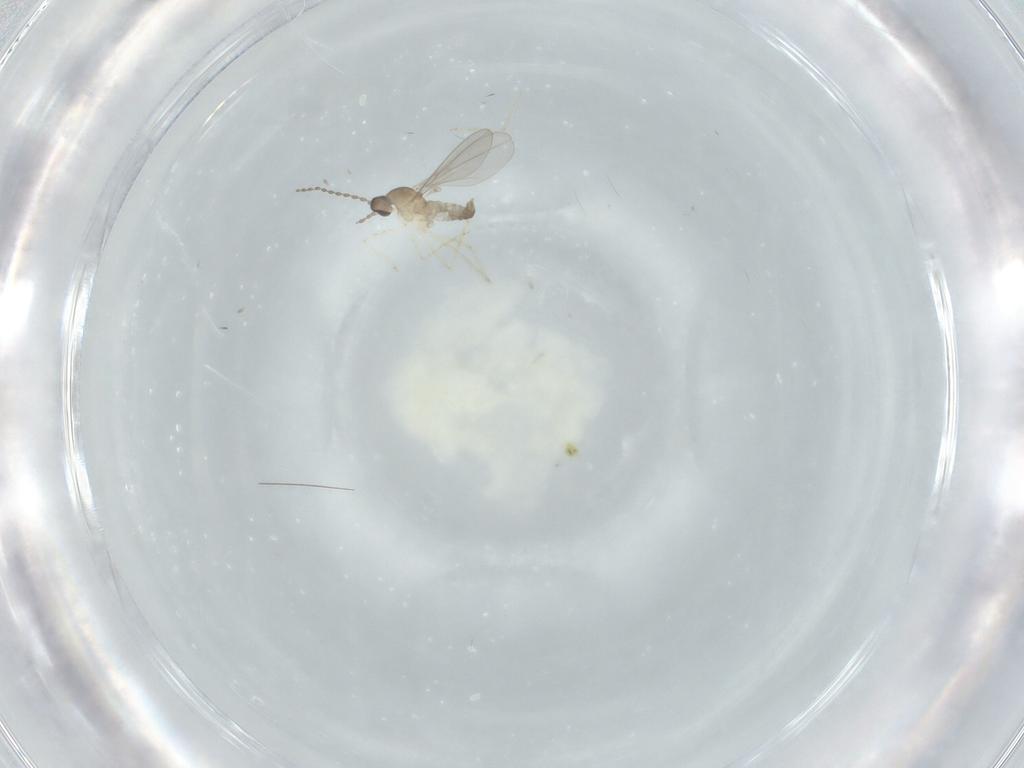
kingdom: Animalia
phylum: Arthropoda
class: Insecta
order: Diptera
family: Cecidomyiidae
